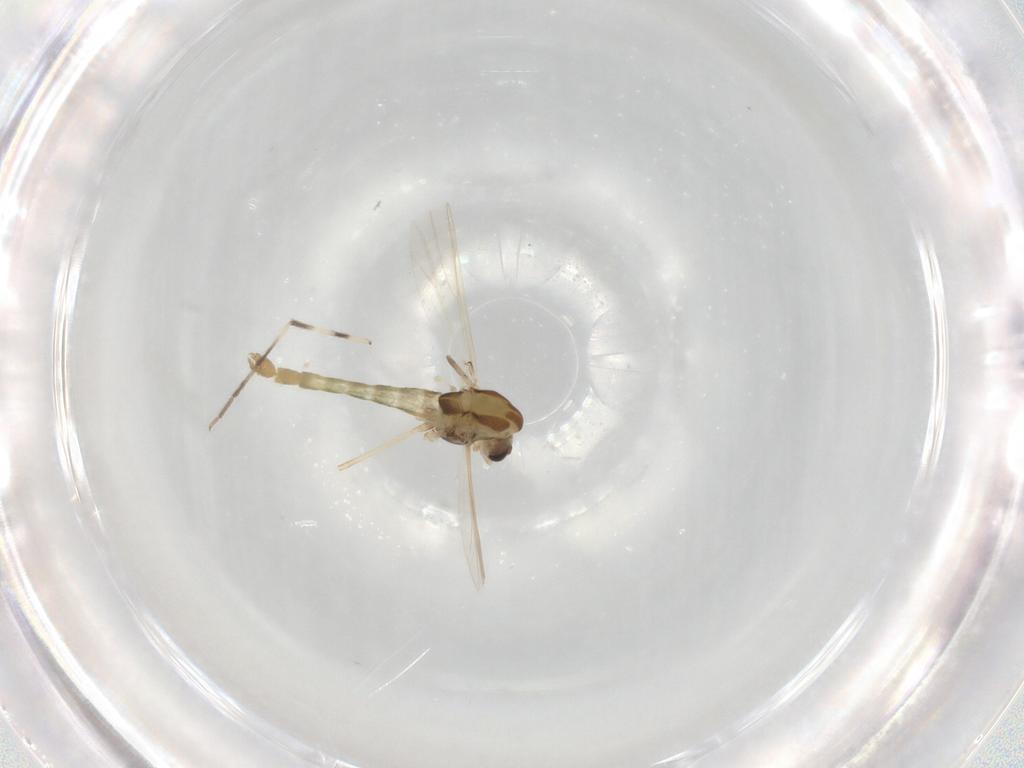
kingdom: Animalia
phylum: Arthropoda
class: Insecta
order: Diptera
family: Chironomidae
